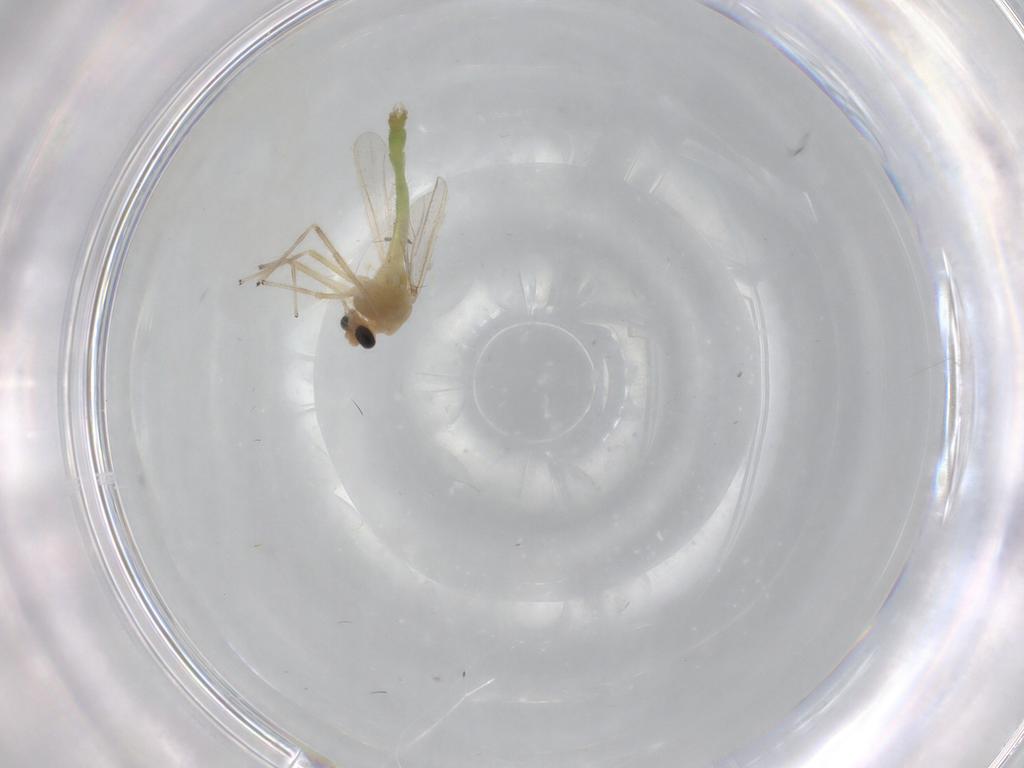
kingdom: Animalia
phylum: Arthropoda
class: Insecta
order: Diptera
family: Chironomidae
